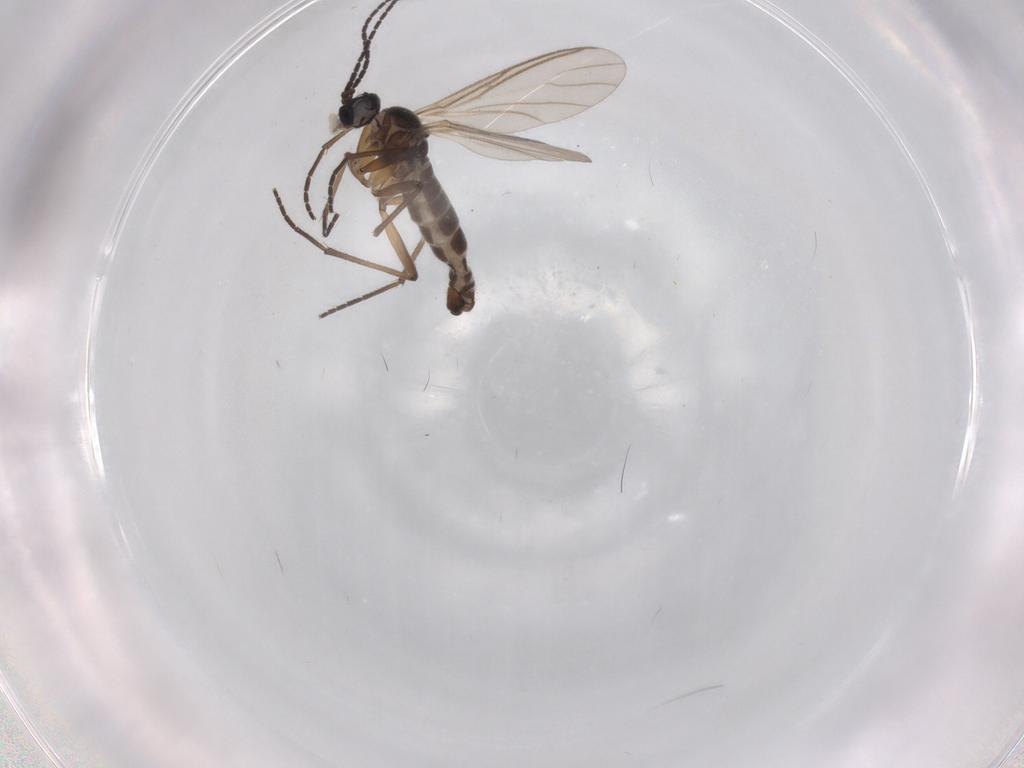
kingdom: Animalia
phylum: Arthropoda
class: Insecta
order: Diptera
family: Sciaridae
